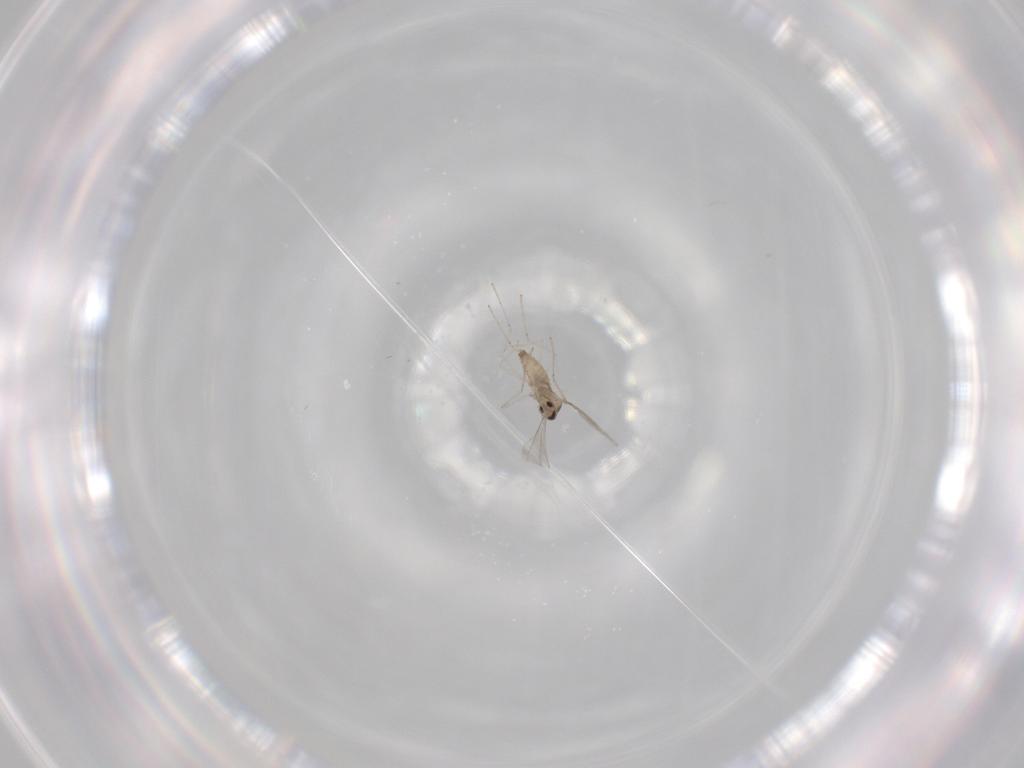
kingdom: Animalia
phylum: Arthropoda
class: Insecta
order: Diptera
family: Cecidomyiidae
